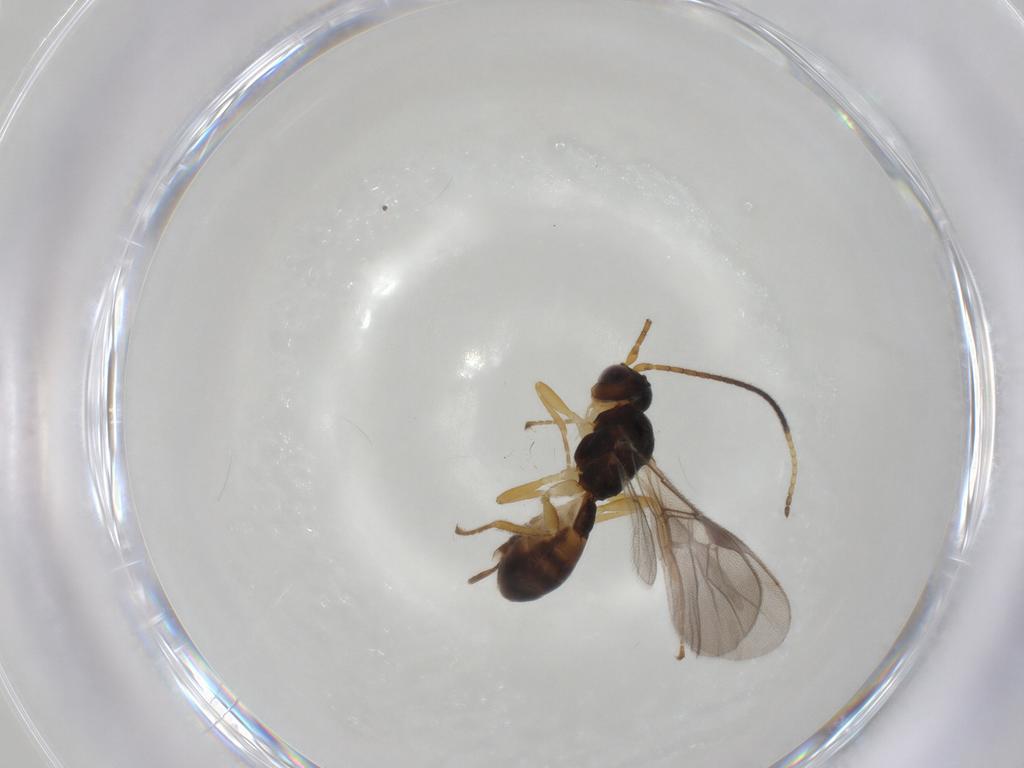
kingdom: Animalia
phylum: Arthropoda
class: Insecta
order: Hymenoptera
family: Braconidae
